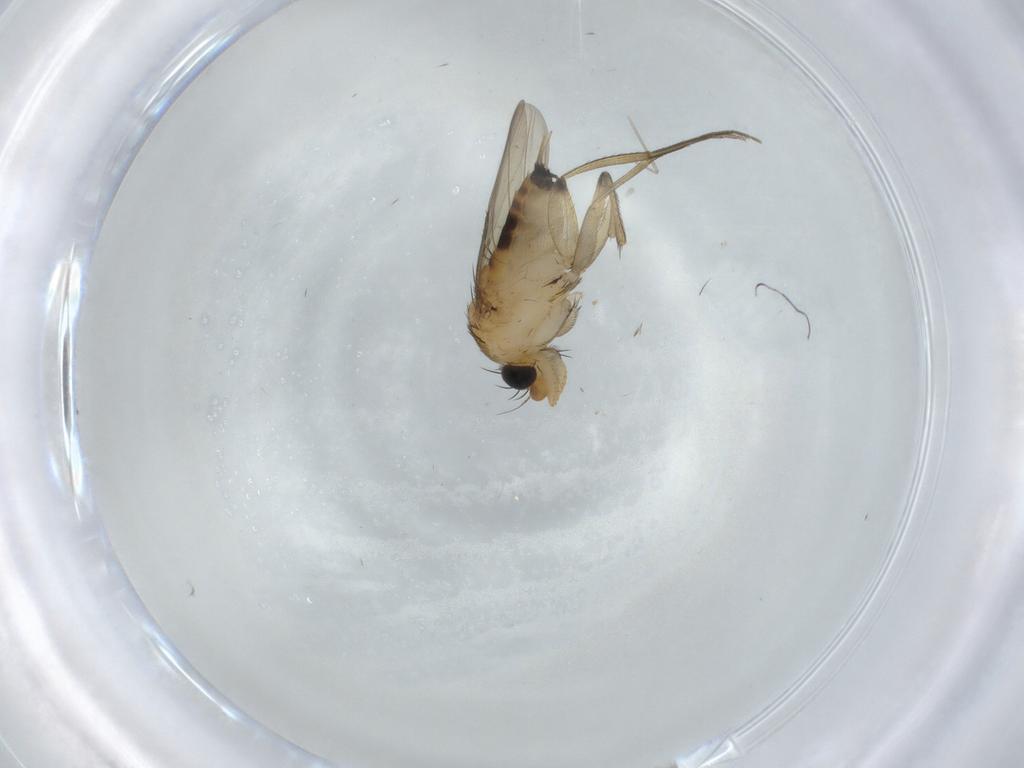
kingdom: Animalia
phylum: Arthropoda
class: Insecta
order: Diptera
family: Phoridae
